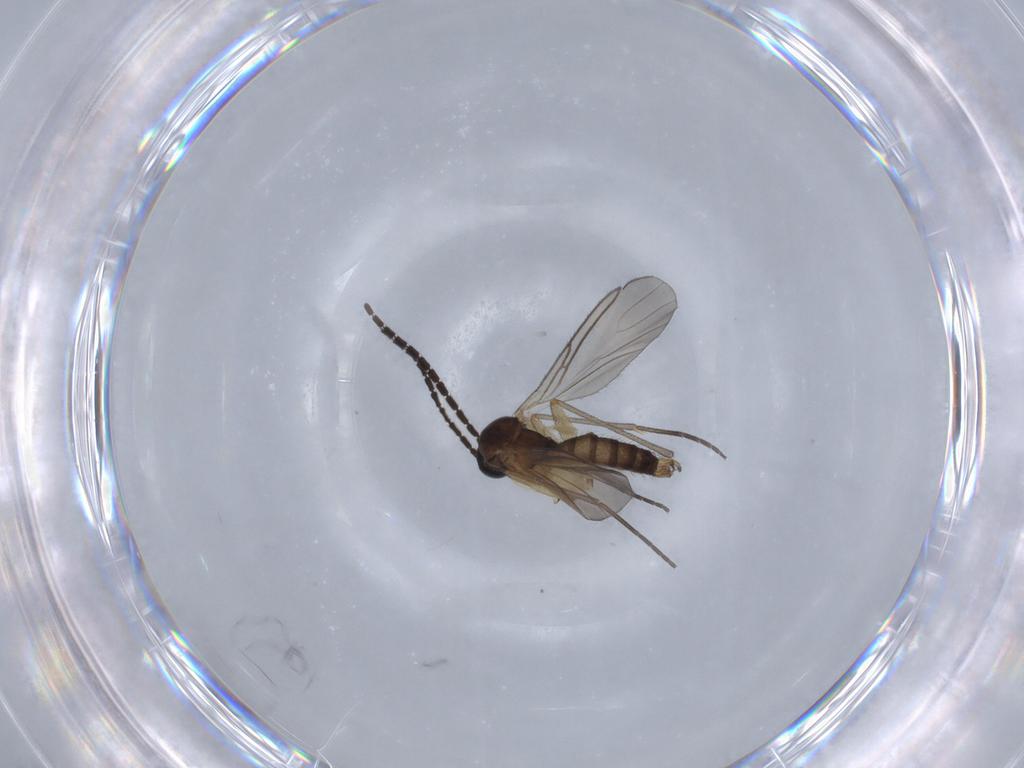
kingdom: Animalia
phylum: Arthropoda
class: Insecta
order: Diptera
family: Sciaridae
